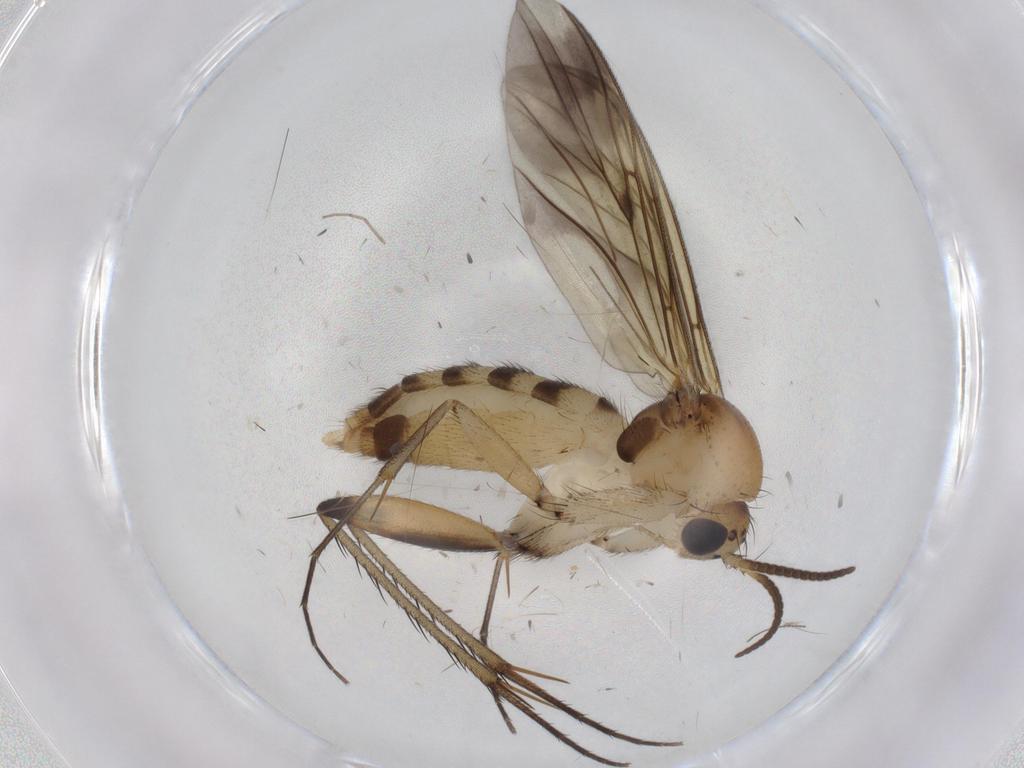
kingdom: Animalia
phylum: Arthropoda
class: Insecta
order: Diptera
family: Mycetophilidae
